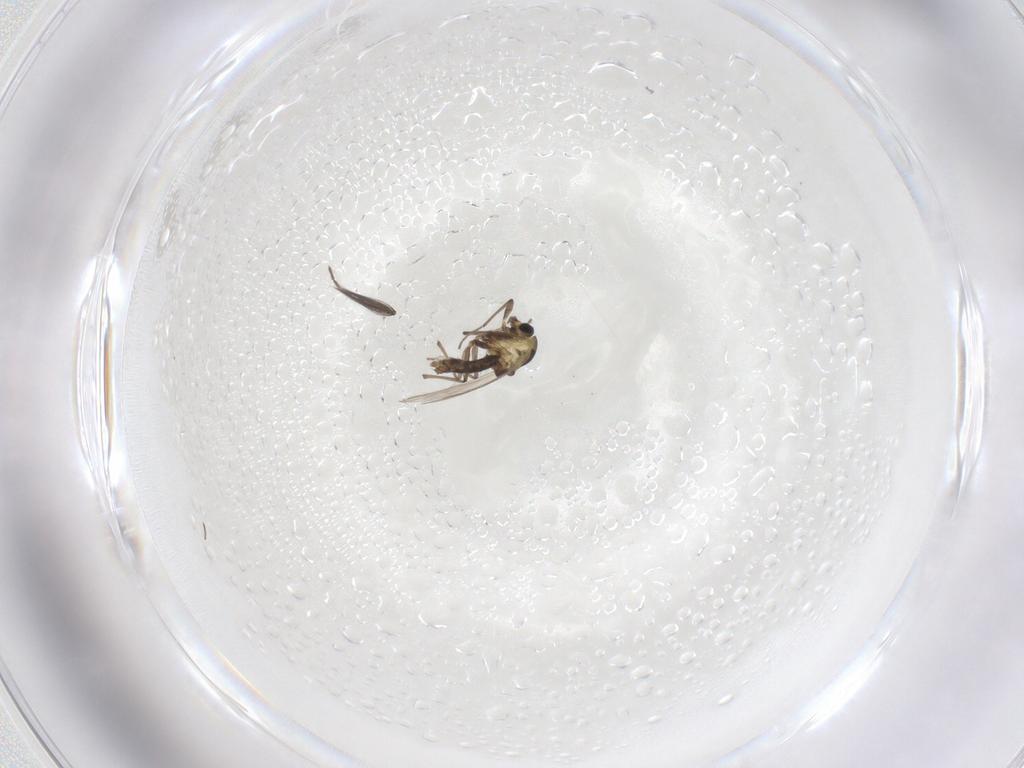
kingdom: Animalia
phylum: Arthropoda
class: Insecta
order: Diptera
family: Chironomidae
